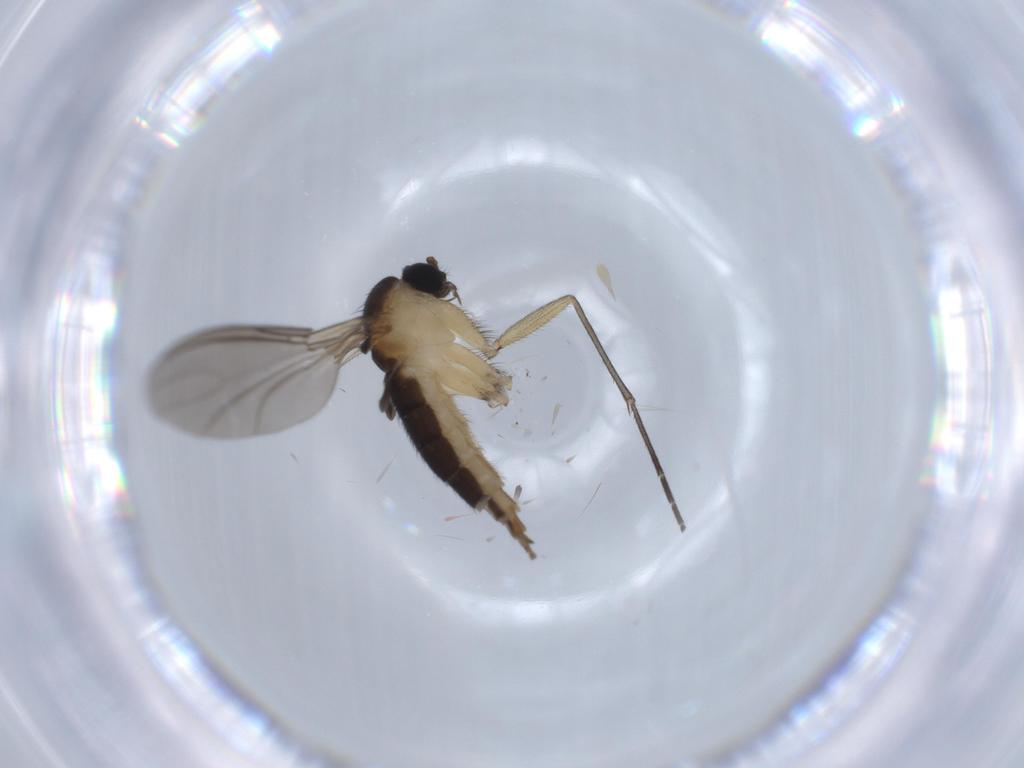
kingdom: Animalia
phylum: Arthropoda
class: Insecta
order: Diptera
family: Sciaridae
